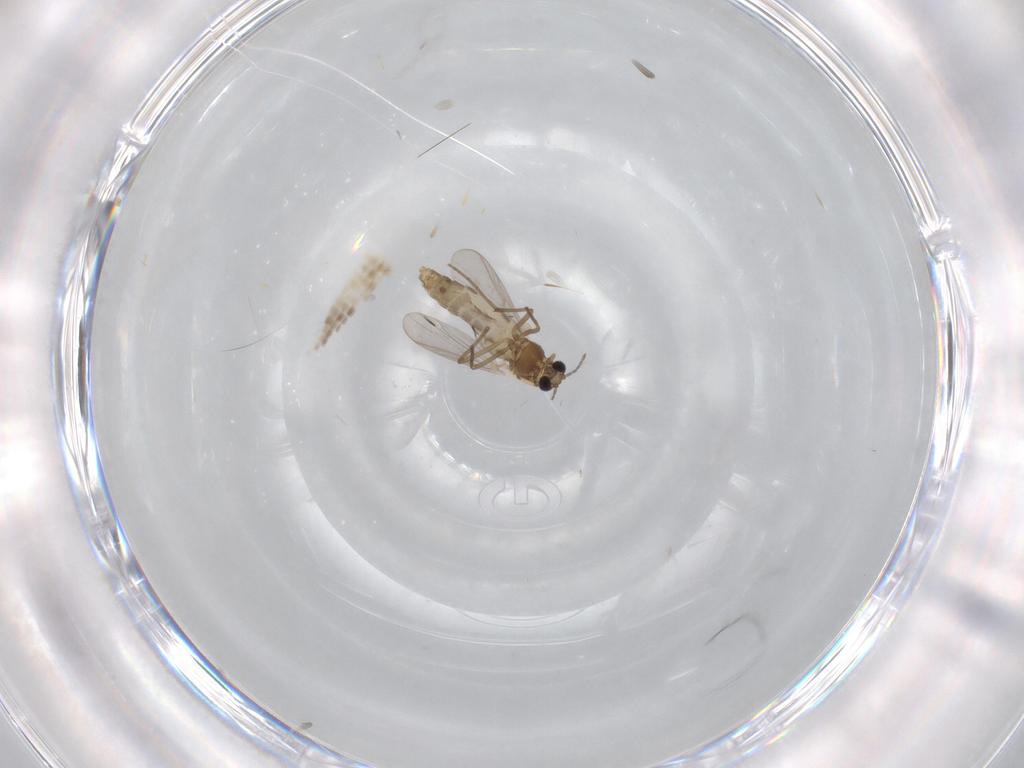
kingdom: Animalia
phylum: Arthropoda
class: Insecta
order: Diptera
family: Chironomidae
